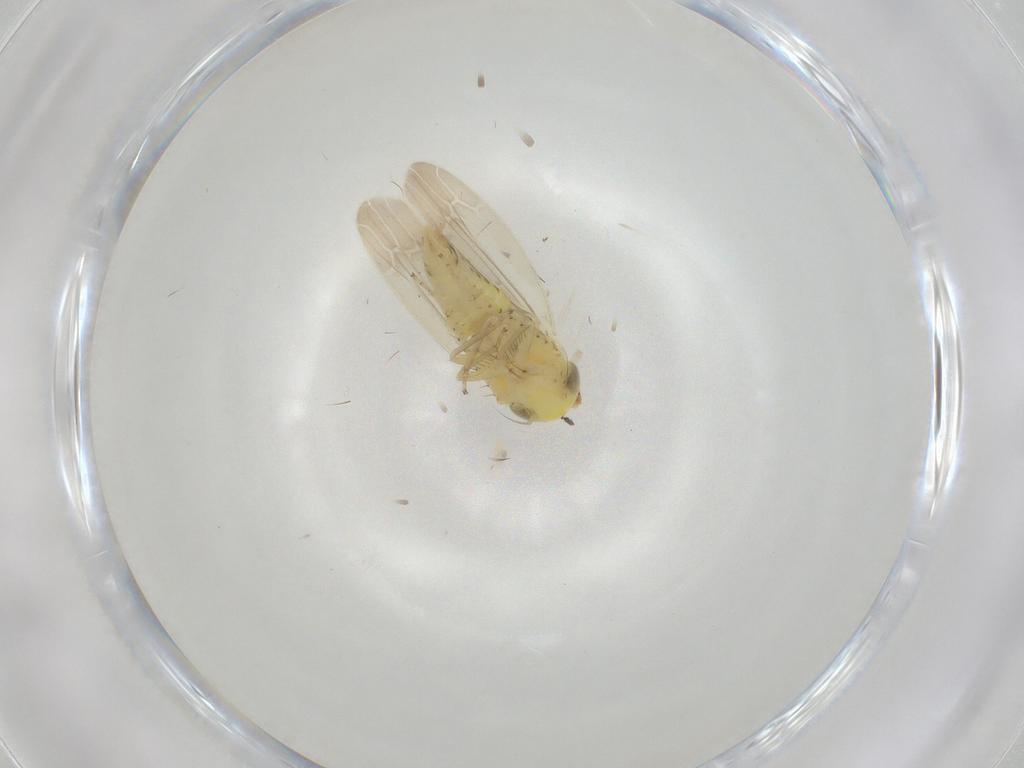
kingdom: Animalia
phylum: Arthropoda
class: Insecta
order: Hemiptera
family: Cicadellidae
